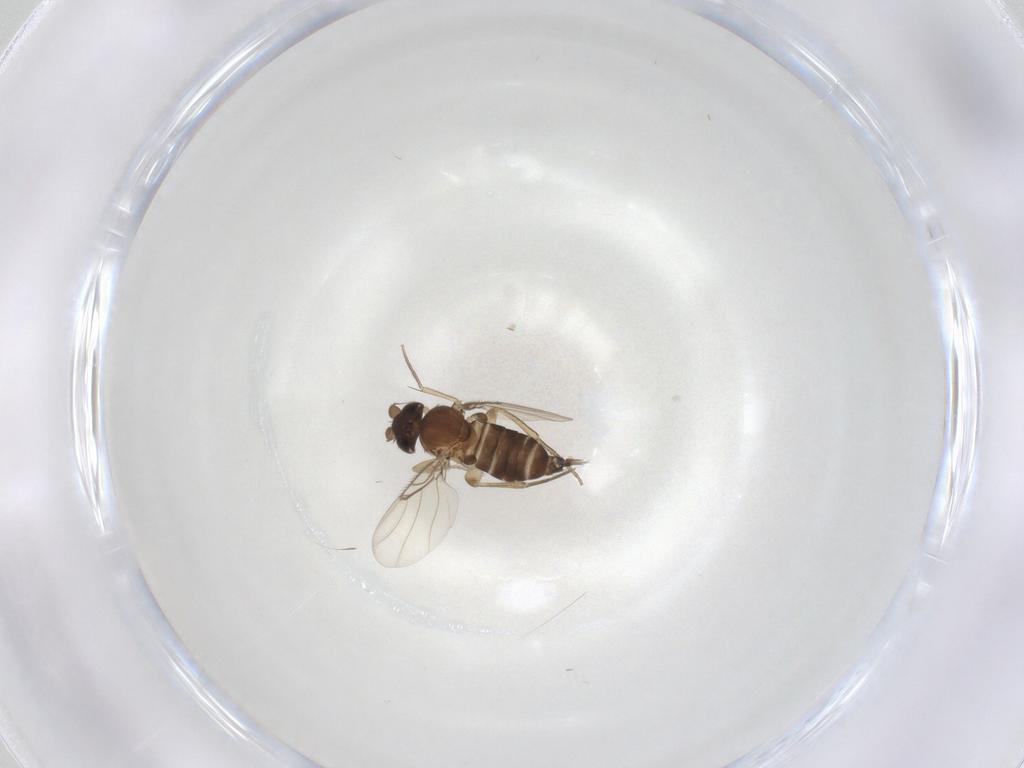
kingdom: Animalia
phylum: Arthropoda
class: Insecta
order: Diptera
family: Phoridae
